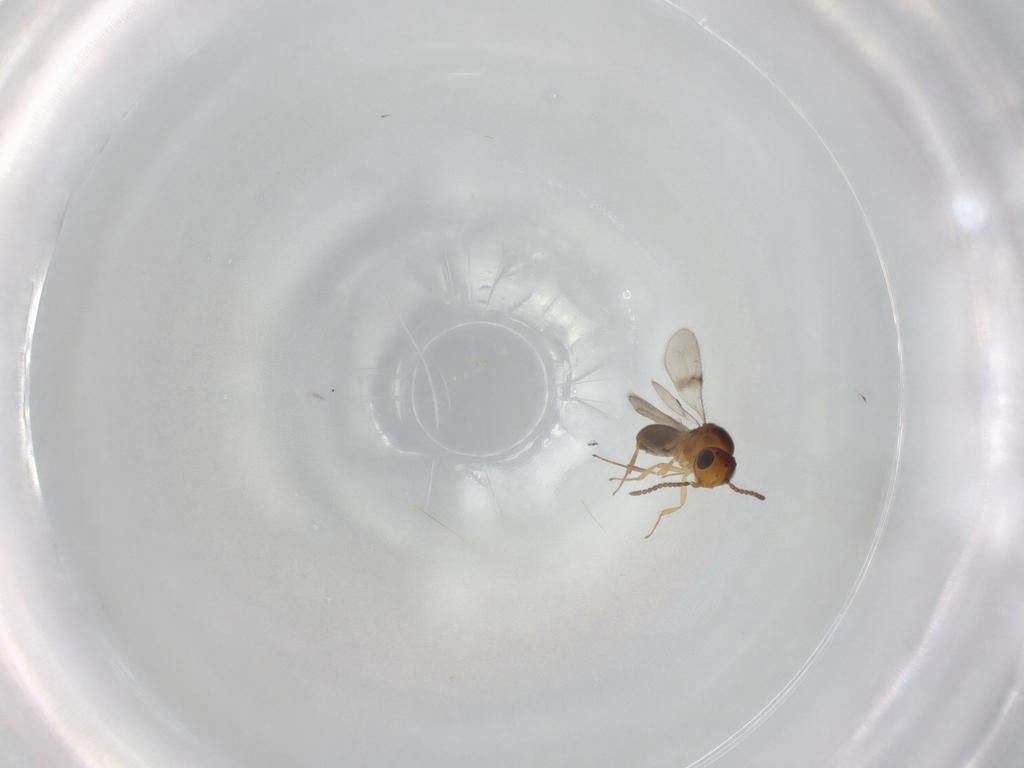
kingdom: Animalia
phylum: Arthropoda
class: Insecta
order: Hymenoptera
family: Scelionidae
